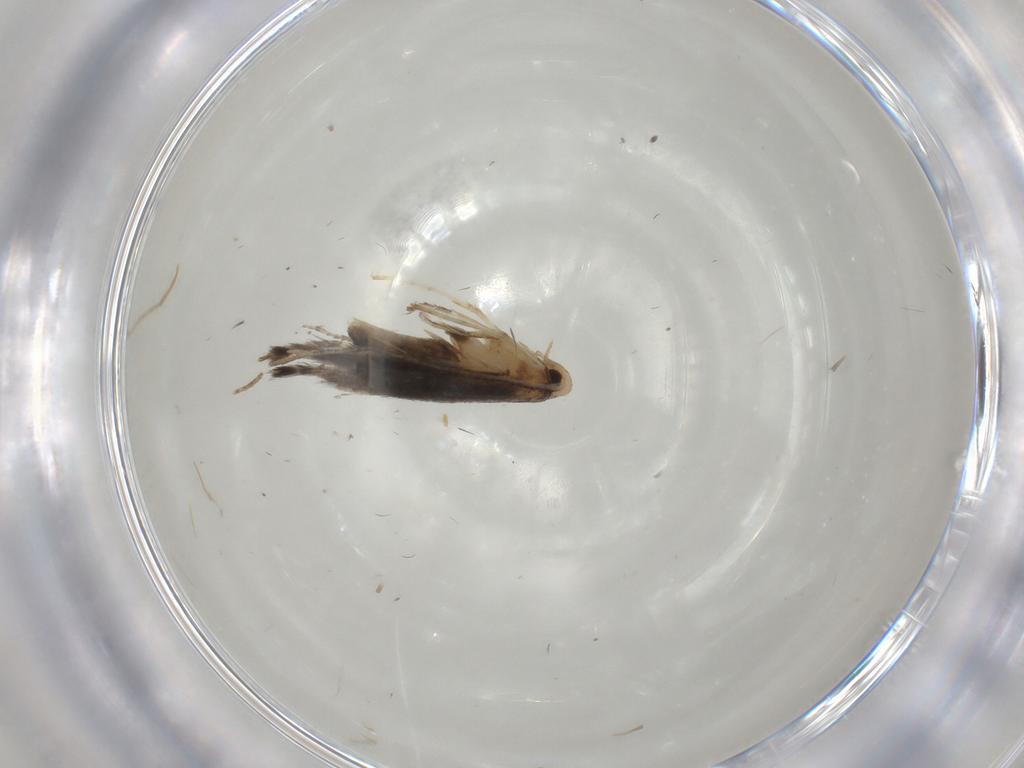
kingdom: Animalia
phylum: Arthropoda
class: Insecta
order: Lepidoptera
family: Gracillariidae
